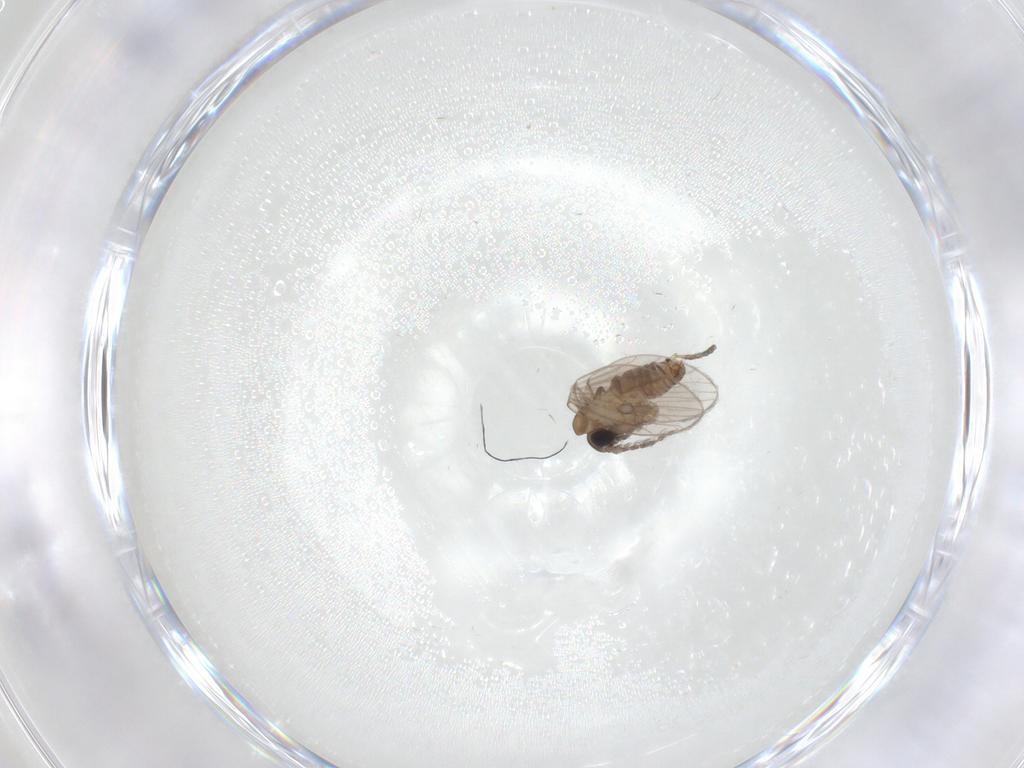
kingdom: Animalia
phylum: Arthropoda
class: Insecta
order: Diptera
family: Psychodidae
